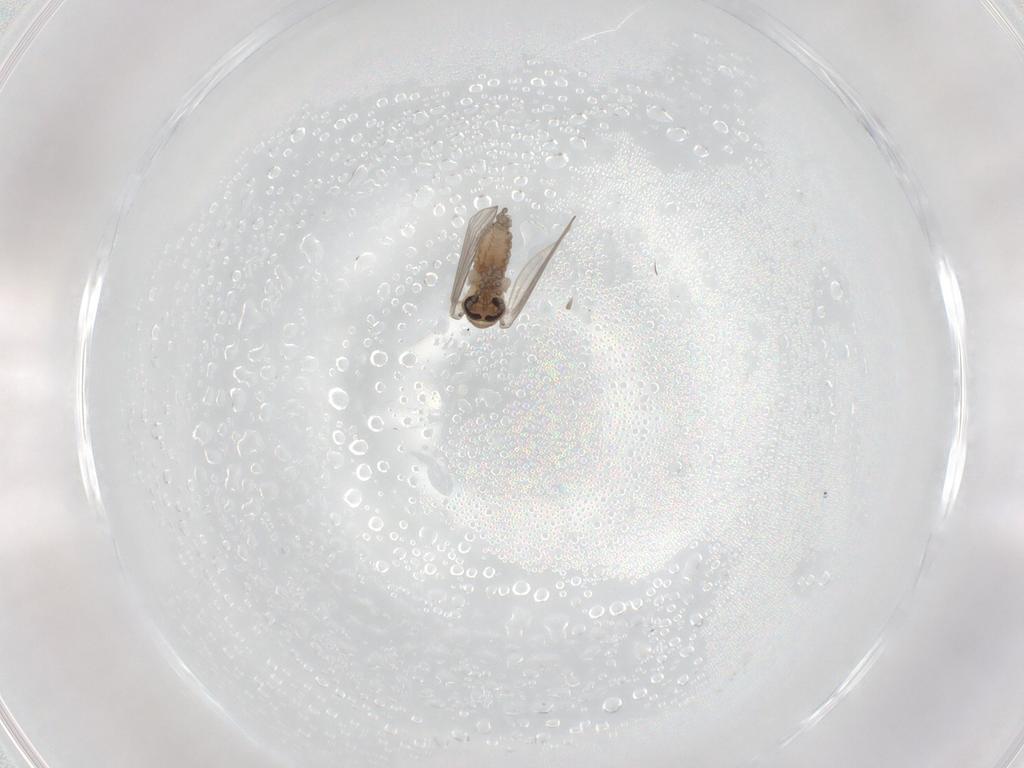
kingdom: Animalia
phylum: Arthropoda
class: Insecta
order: Diptera
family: Psychodidae
